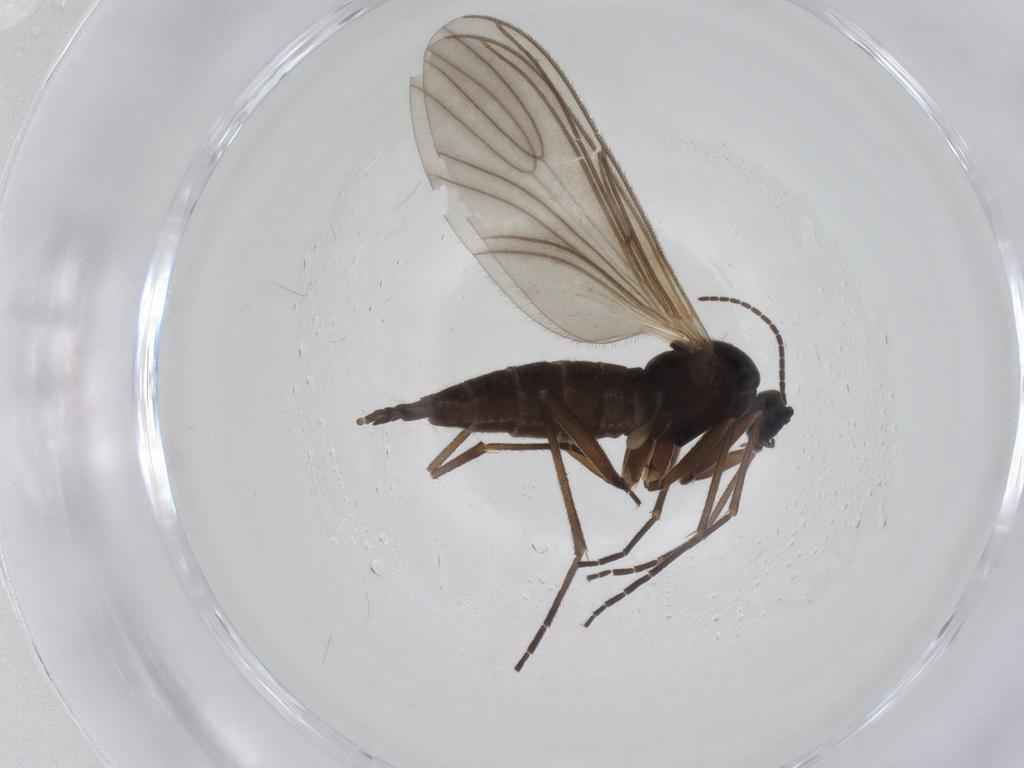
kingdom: Animalia
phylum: Arthropoda
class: Insecta
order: Diptera
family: Sciaridae
